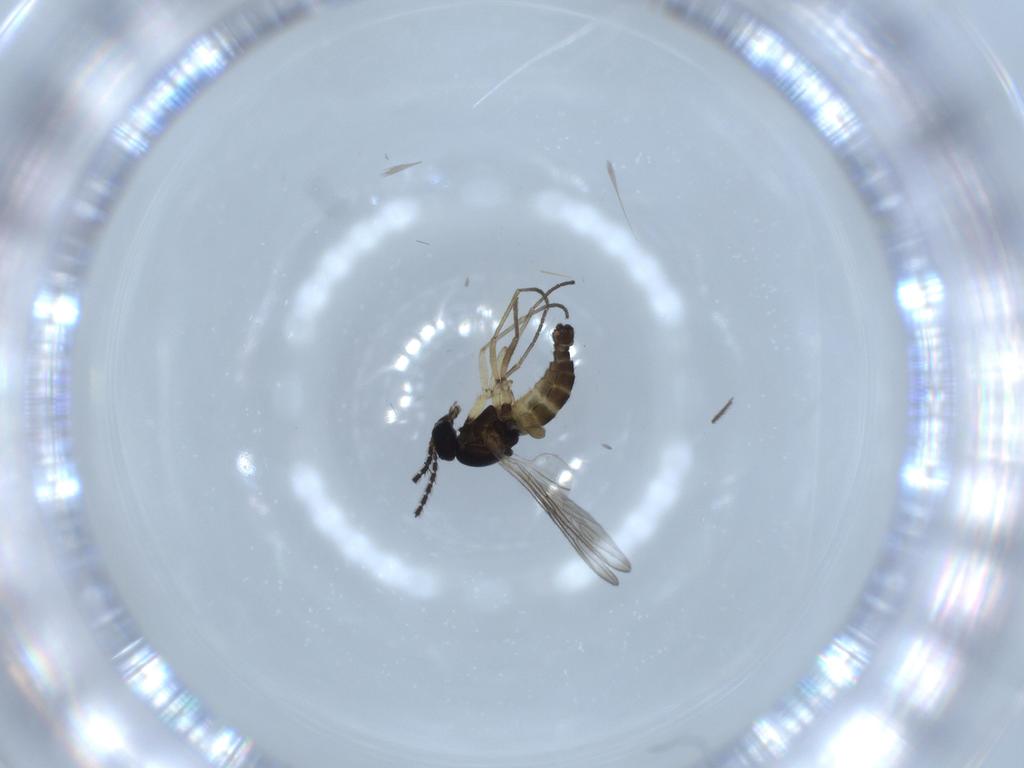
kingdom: Animalia
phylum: Arthropoda
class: Insecta
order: Diptera
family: Sciaridae
